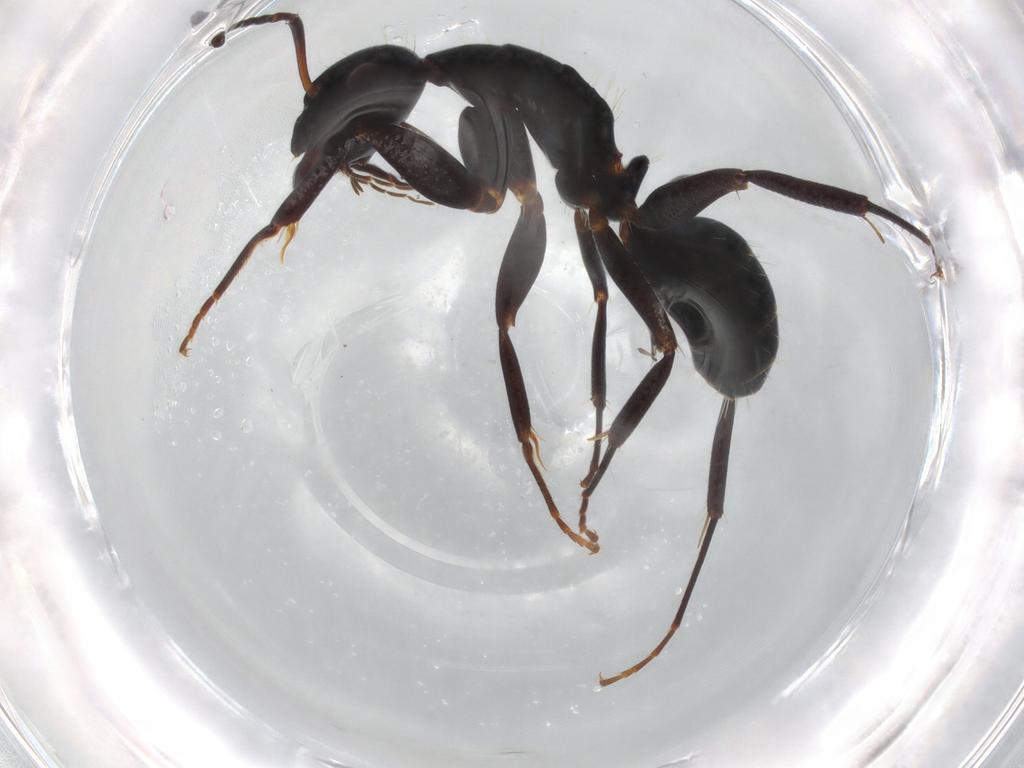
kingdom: Animalia
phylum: Arthropoda
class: Insecta
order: Hymenoptera
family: Formicidae
